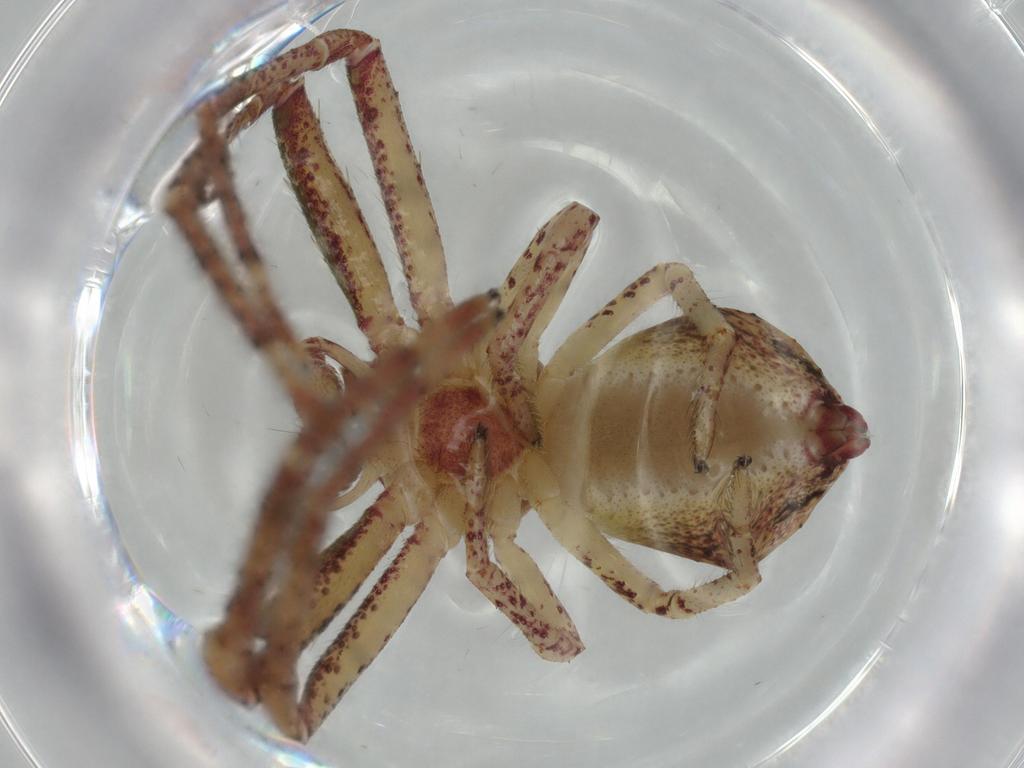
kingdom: Animalia
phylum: Arthropoda
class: Arachnida
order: Araneae
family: Thomisidae
